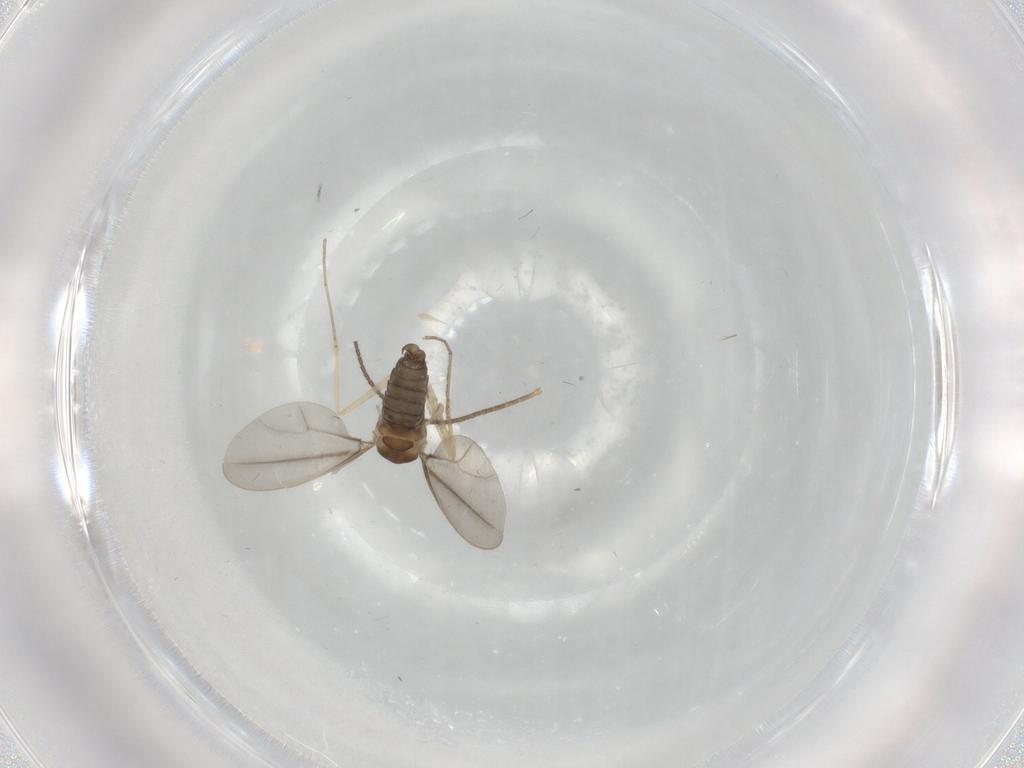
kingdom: Animalia
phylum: Arthropoda
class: Insecta
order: Diptera
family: Cecidomyiidae
